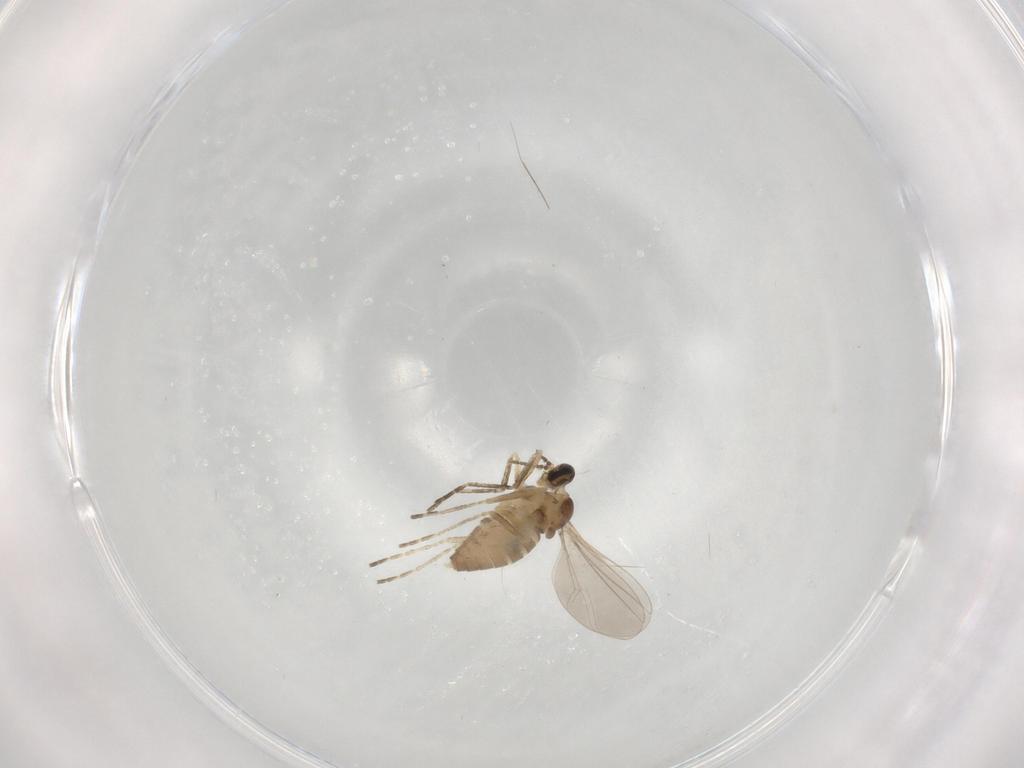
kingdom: Animalia
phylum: Arthropoda
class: Insecta
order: Diptera
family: Cecidomyiidae
